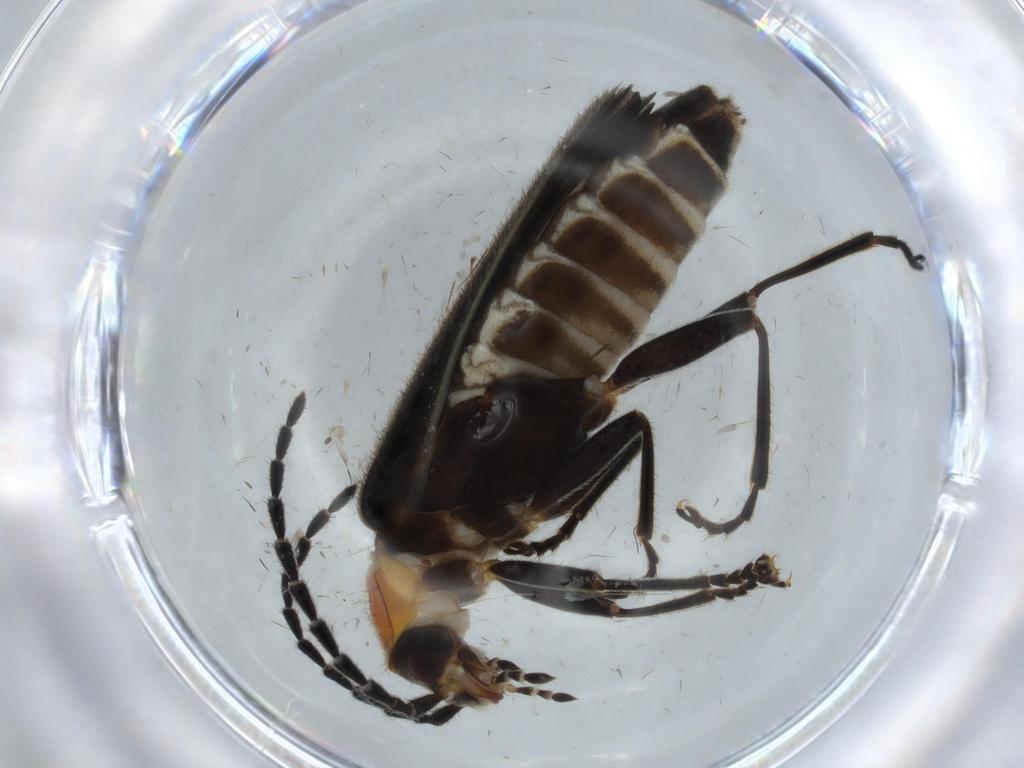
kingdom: Animalia
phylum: Arthropoda
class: Insecta
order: Coleoptera
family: Cantharidae
